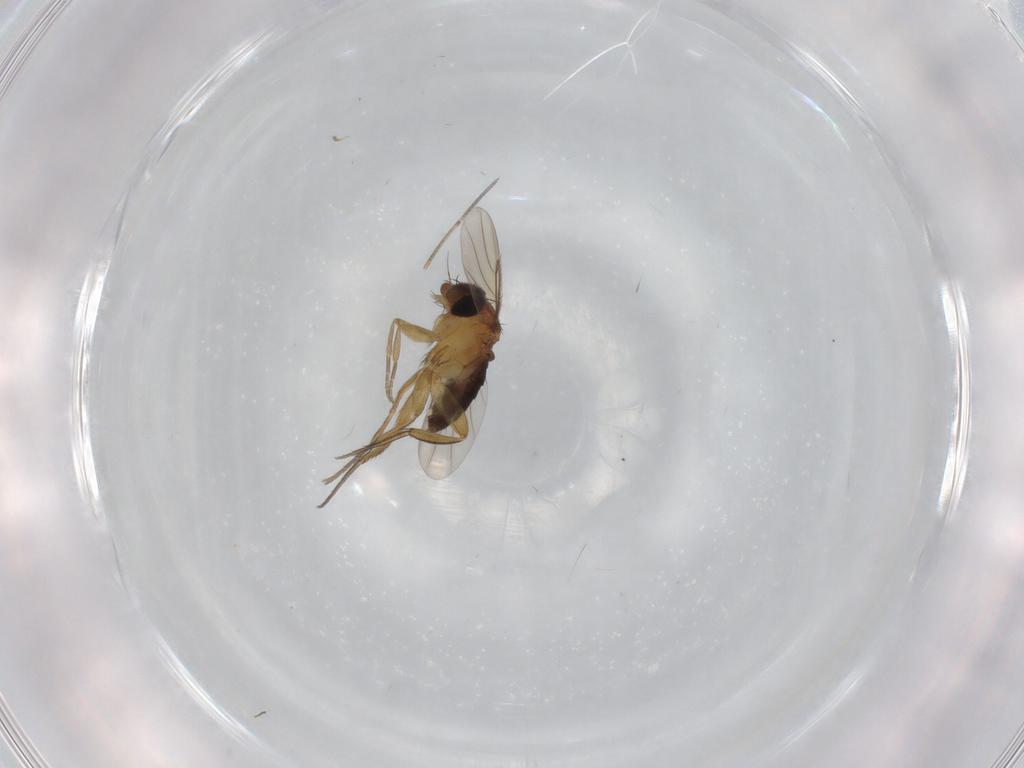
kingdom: Animalia
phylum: Arthropoda
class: Insecta
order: Diptera
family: Phoridae
